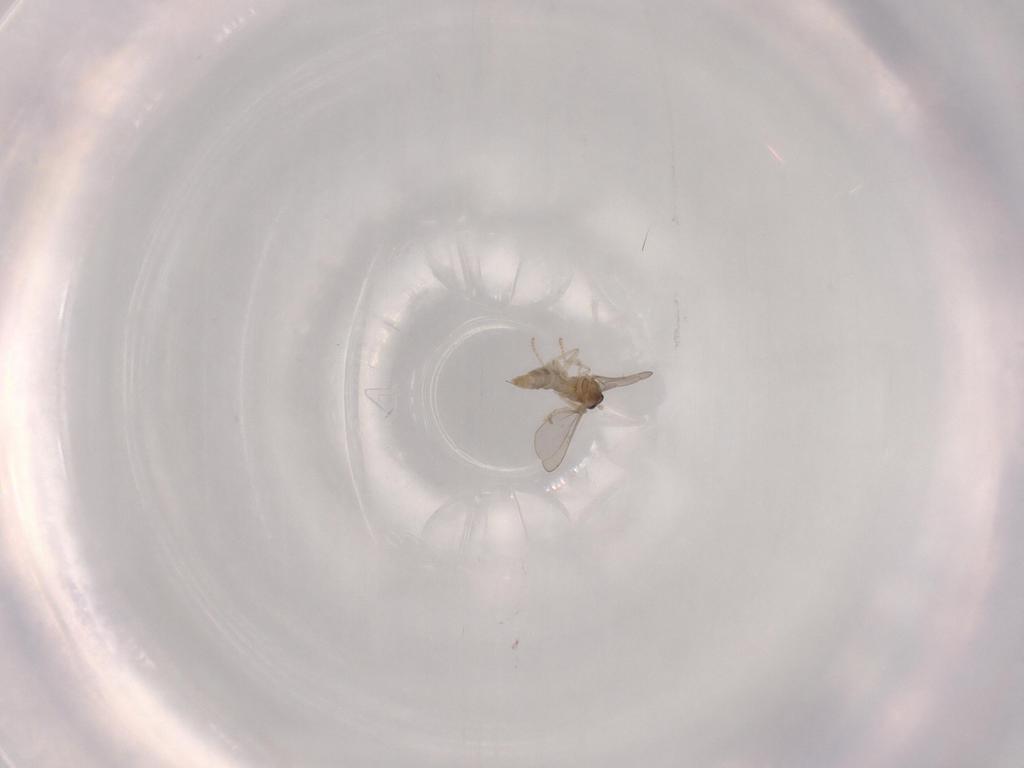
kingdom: Animalia
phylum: Arthropoda
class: Insecta
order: Diptera
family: Cecidomyiidae
